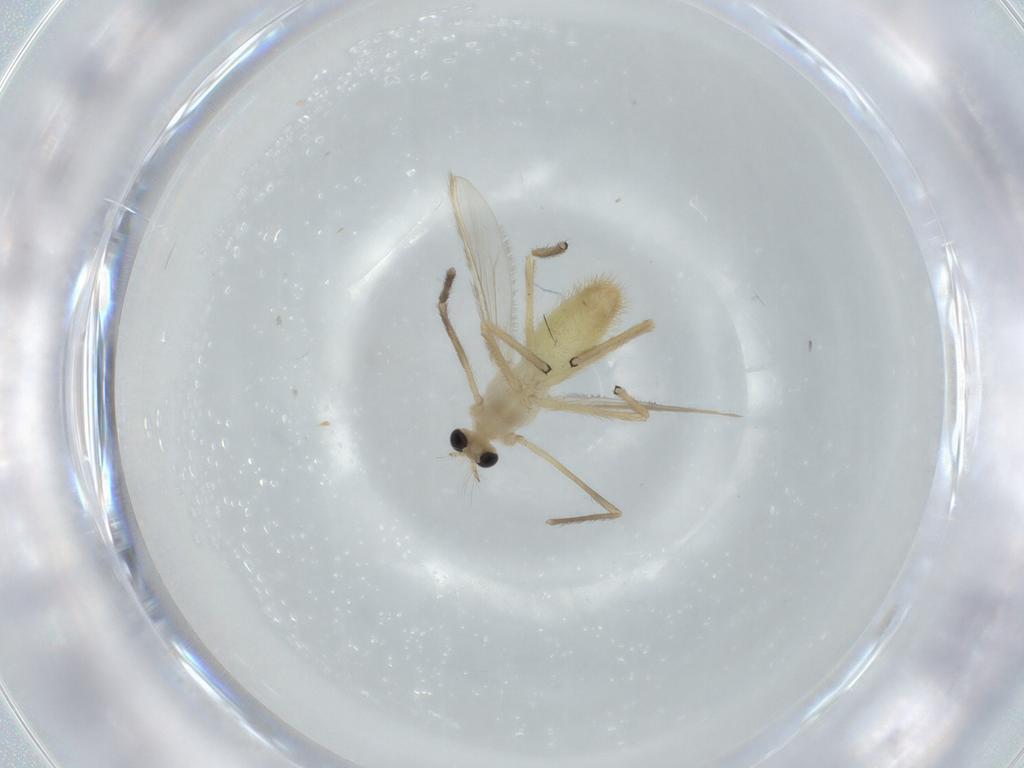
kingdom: Animalia
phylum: Arthropoda
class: Insecta
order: Diptera
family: Chironomidae
